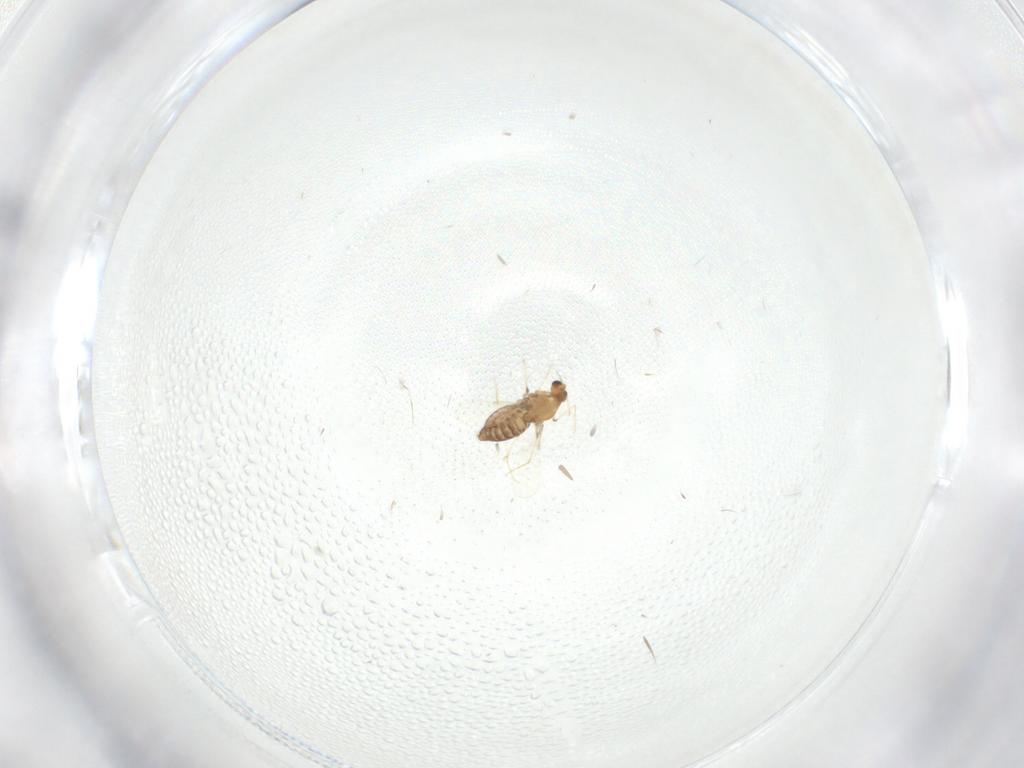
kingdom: Animalia
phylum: Arthropoda
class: Insecta
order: Diptera
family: Chironomidae
